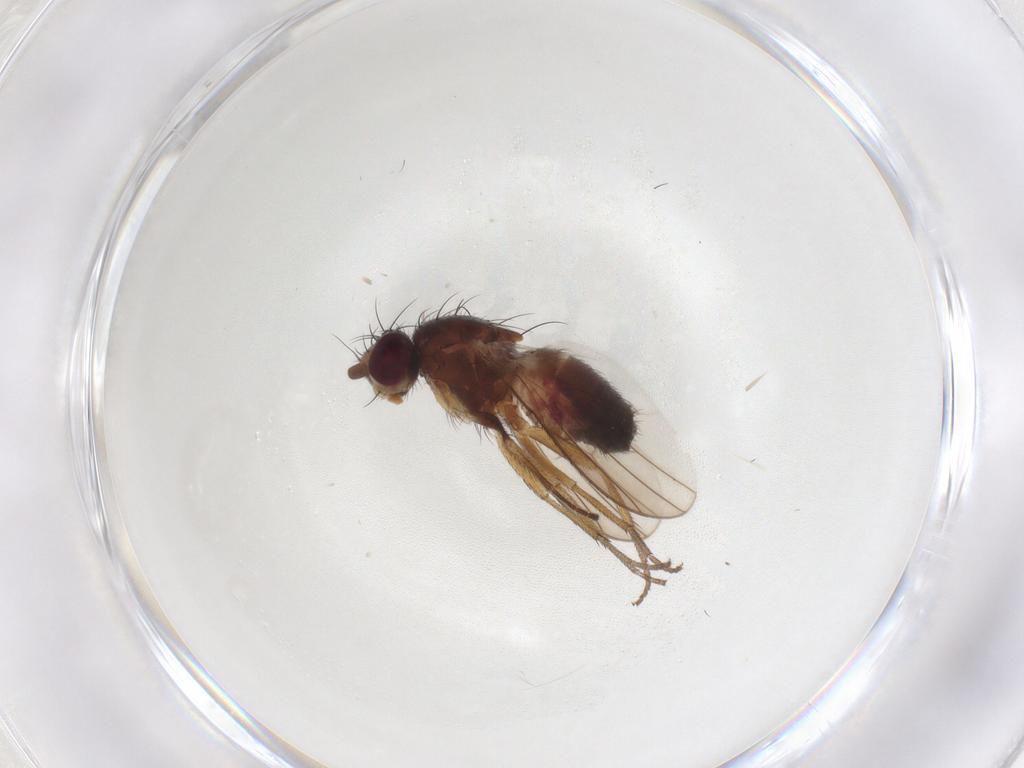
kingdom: Animalia
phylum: Arthropoda
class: Insecta
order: Diptera
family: Heleomyzidae
